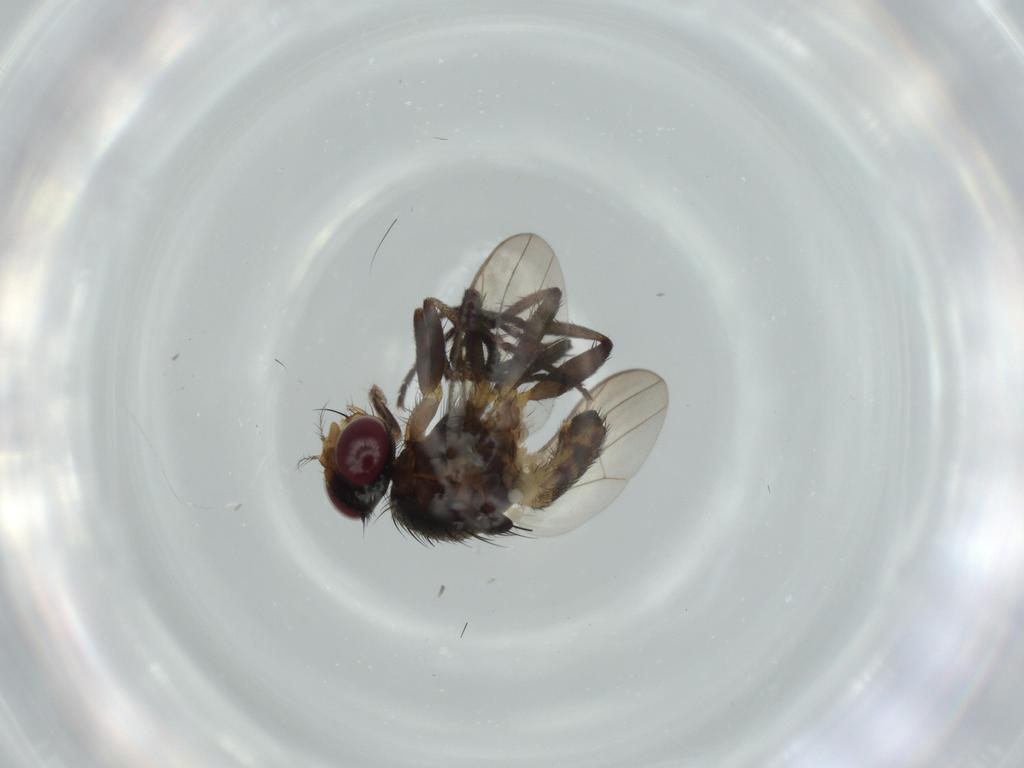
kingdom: Animalia
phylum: Arthropoda
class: Insecta
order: Diptera
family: Anthomyiidae
